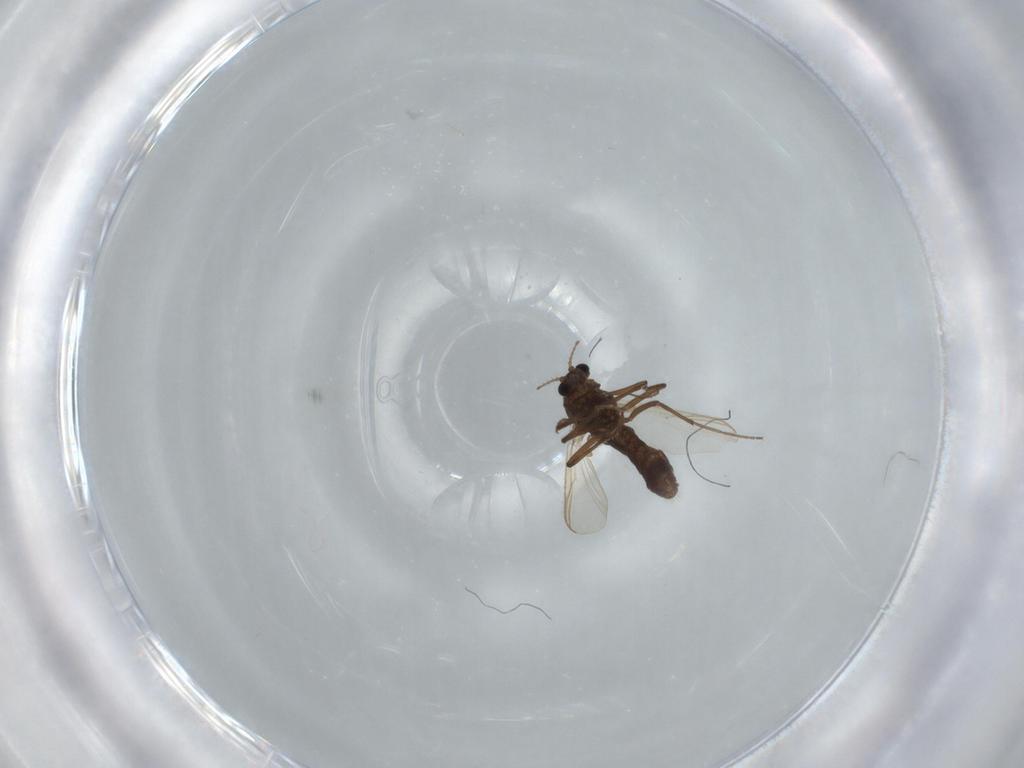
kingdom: Animalia
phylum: Arthropoda
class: Insecta
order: Diptera
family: Chironomidae
